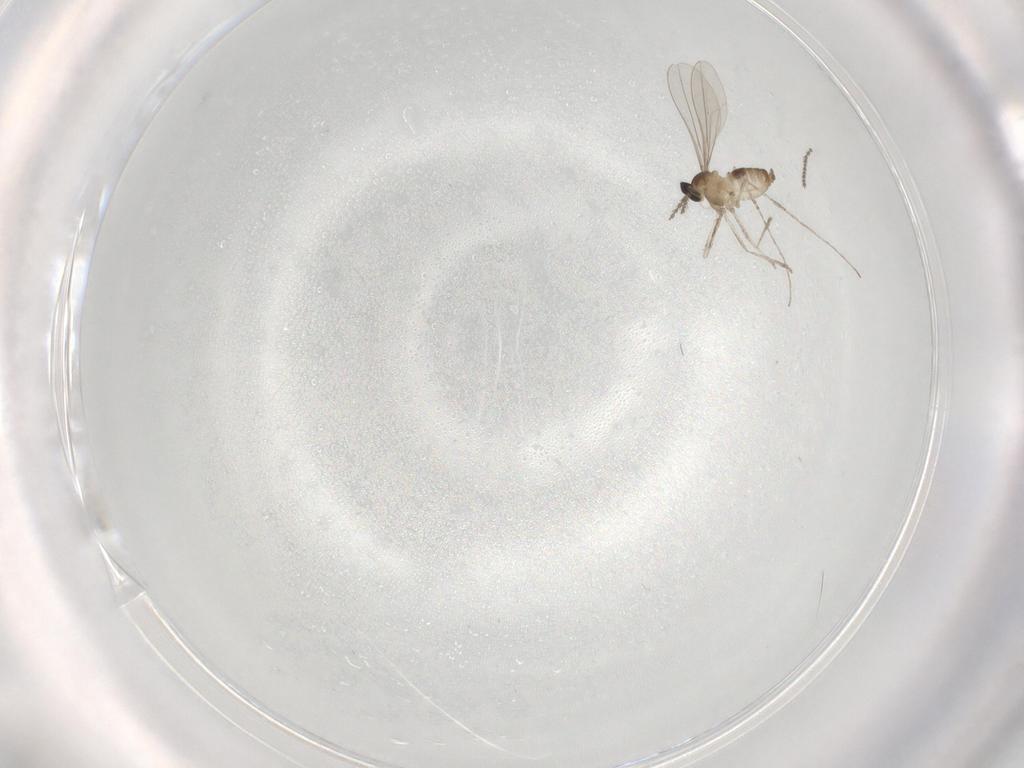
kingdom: Animalia
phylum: Arthropoda
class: Insecta
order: Diptera
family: Cecidomyiidae
